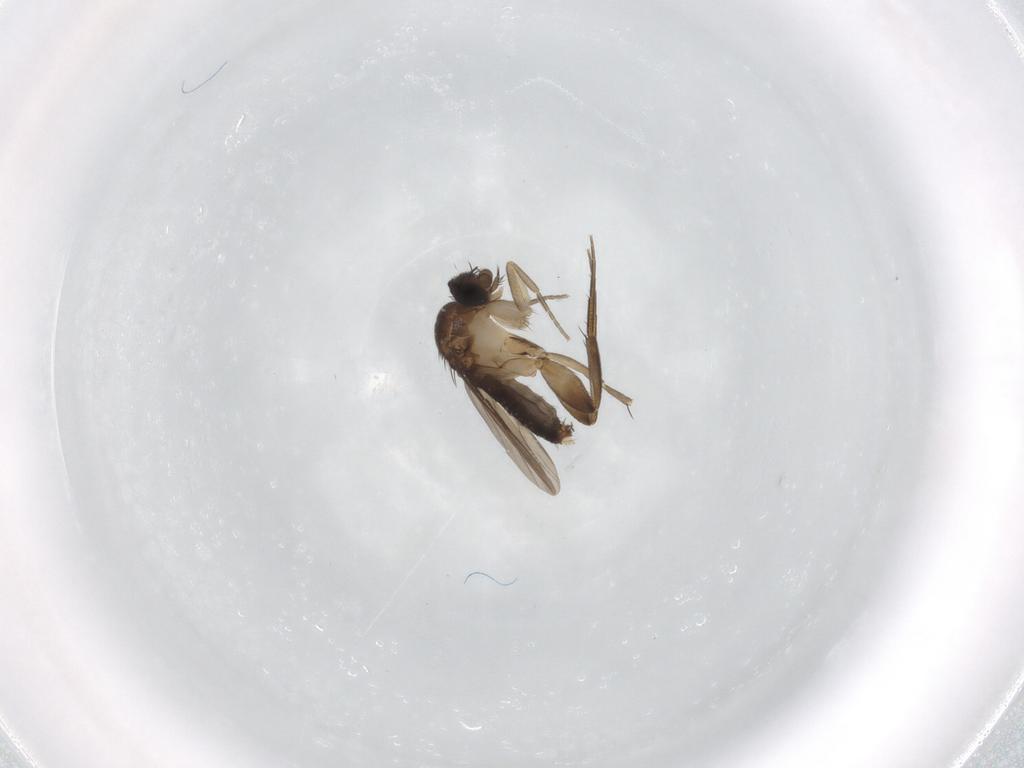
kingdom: Animalia
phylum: Arthropoda
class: Insecta
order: Diptera
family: Phoridae
